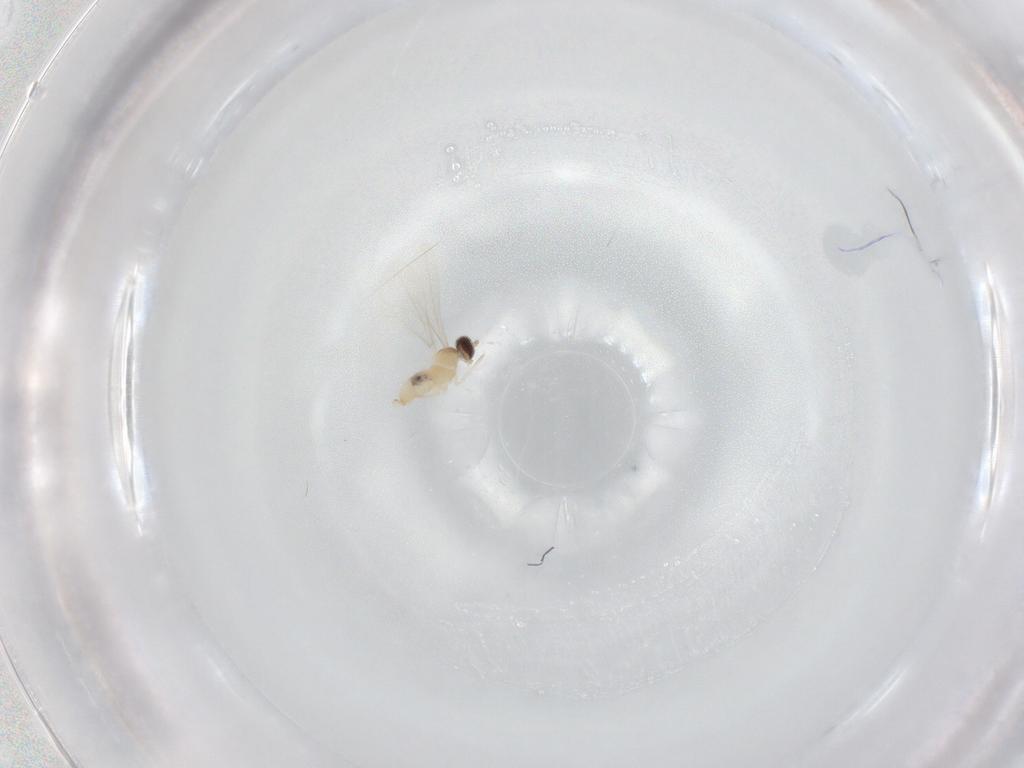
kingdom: Animalia
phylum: Arthropoda
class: Insecta
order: Diptera
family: Cecidomyiidae
